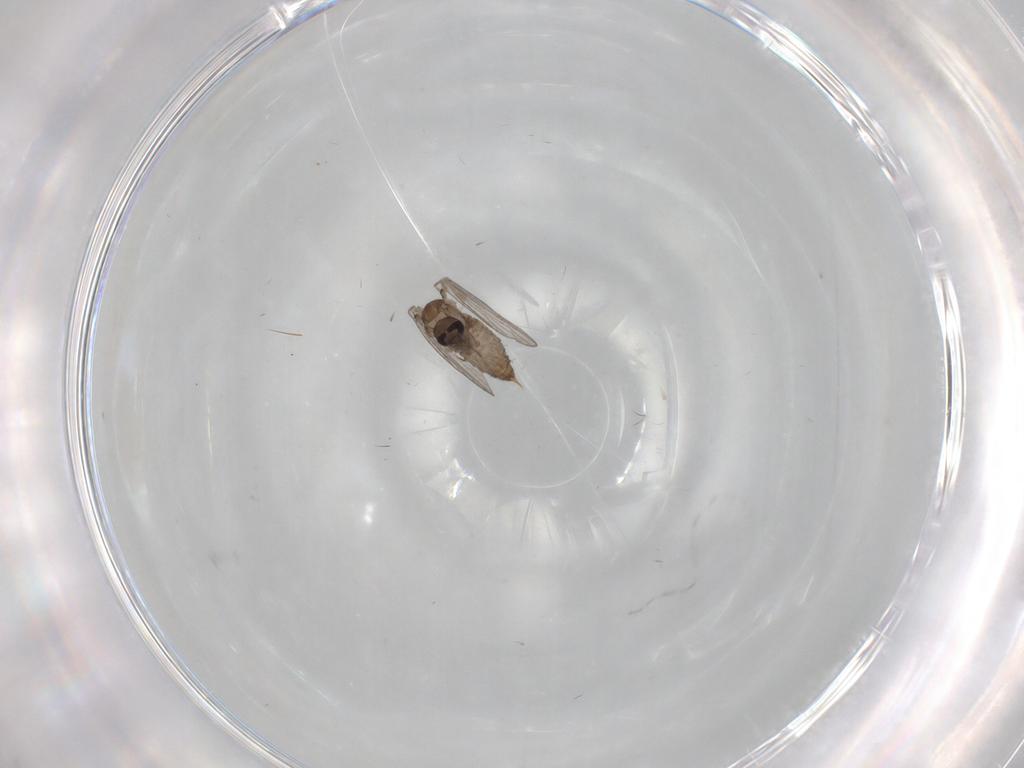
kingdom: Animalia
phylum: Arthropoda
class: Insecta
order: Diptera
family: Psychodidae
